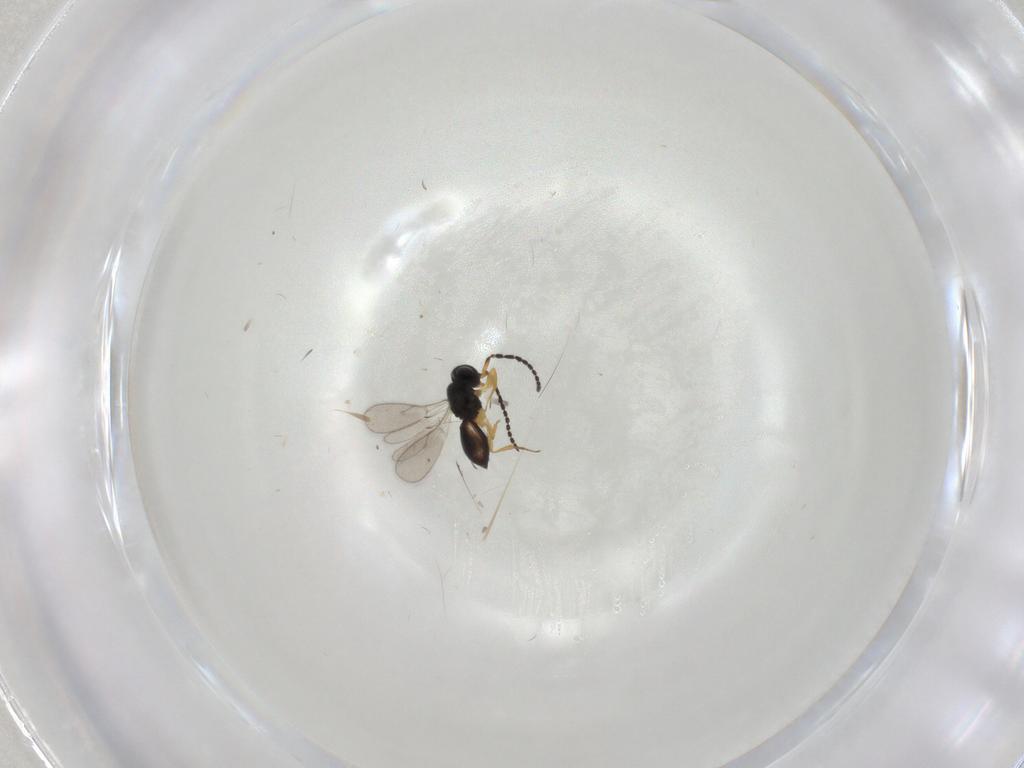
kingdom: Animalia
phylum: Arthropoda
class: Insecta
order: Hymenoptera
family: Scelionidae
